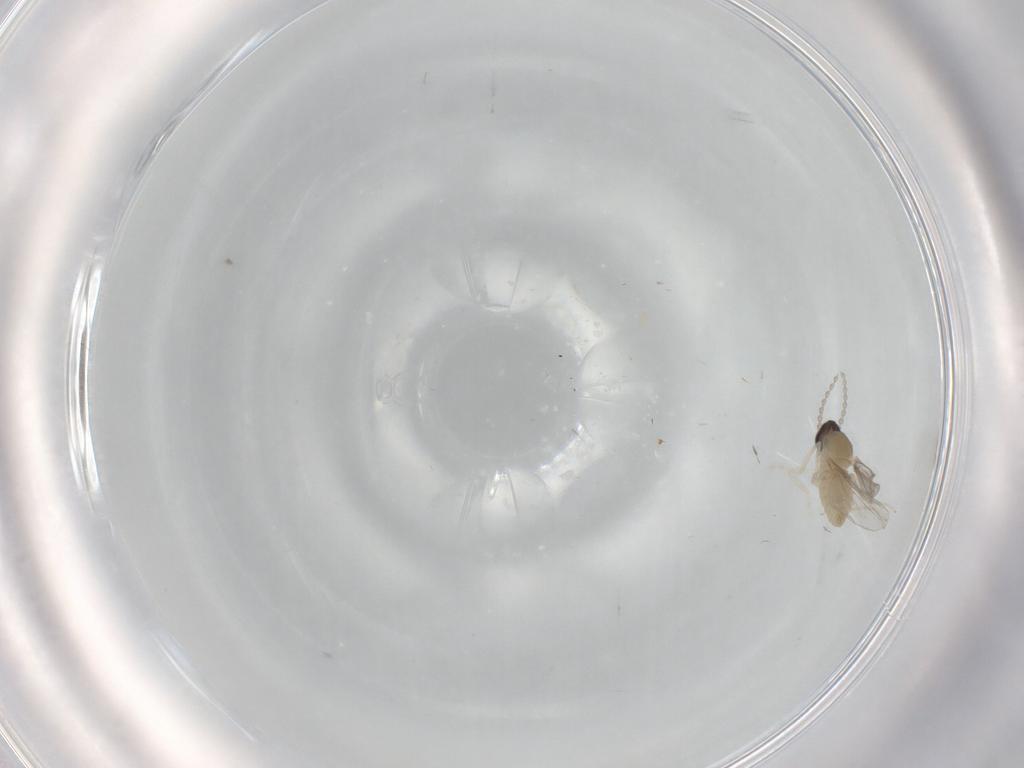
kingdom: Animalia
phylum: Arthropoda
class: Insecta
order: Diptera
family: Cecidomyiidae
